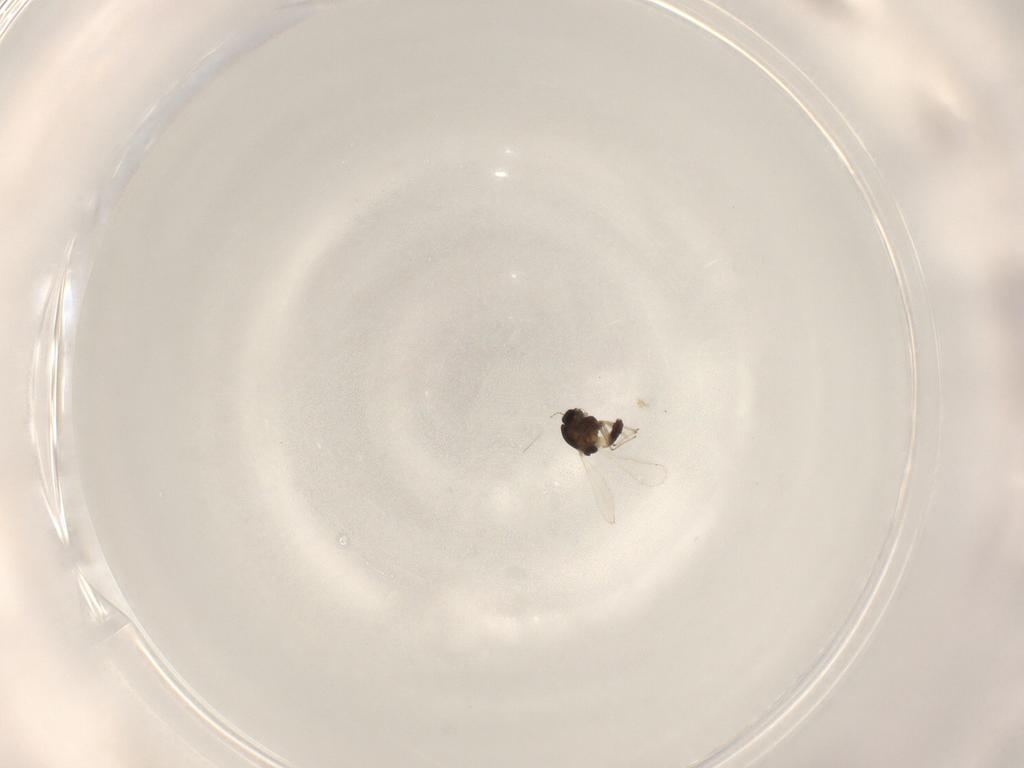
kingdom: Animalia
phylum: Arthropoda
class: Insecta
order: Diptera
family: Chironomidae
